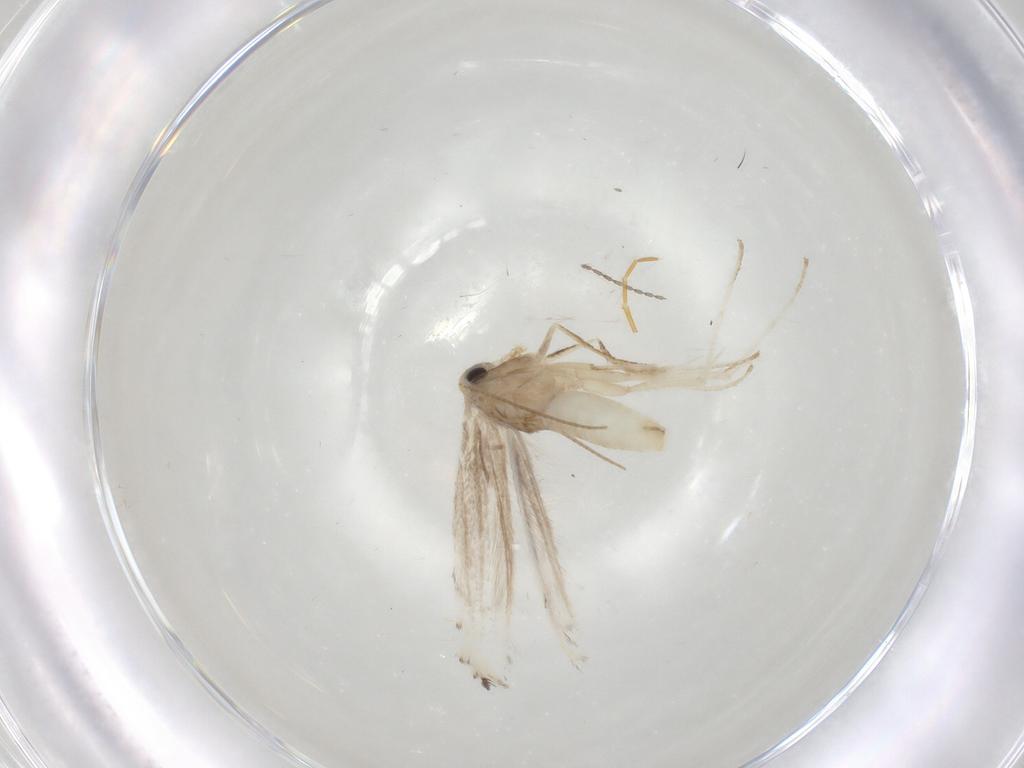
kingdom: Animalia
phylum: Arthropoda
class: Insecta
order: Lepidoptera
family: Gracillariidae
